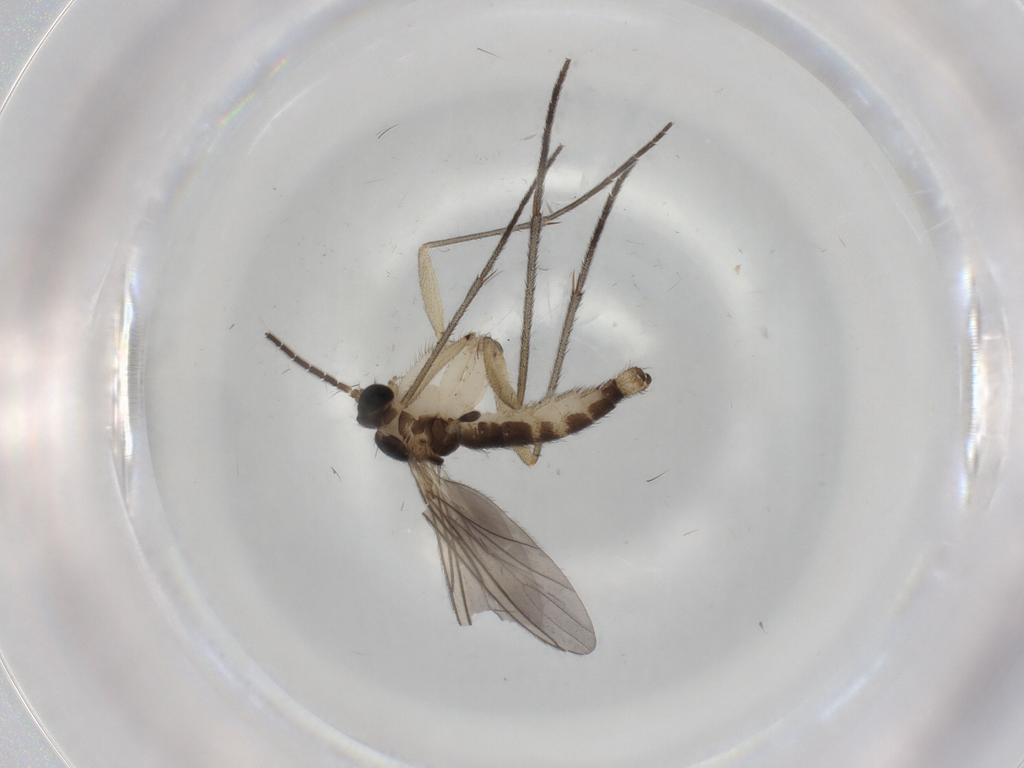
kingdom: Animalia
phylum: Arthropoda
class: Insecta
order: Diptera
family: Sciaridae
